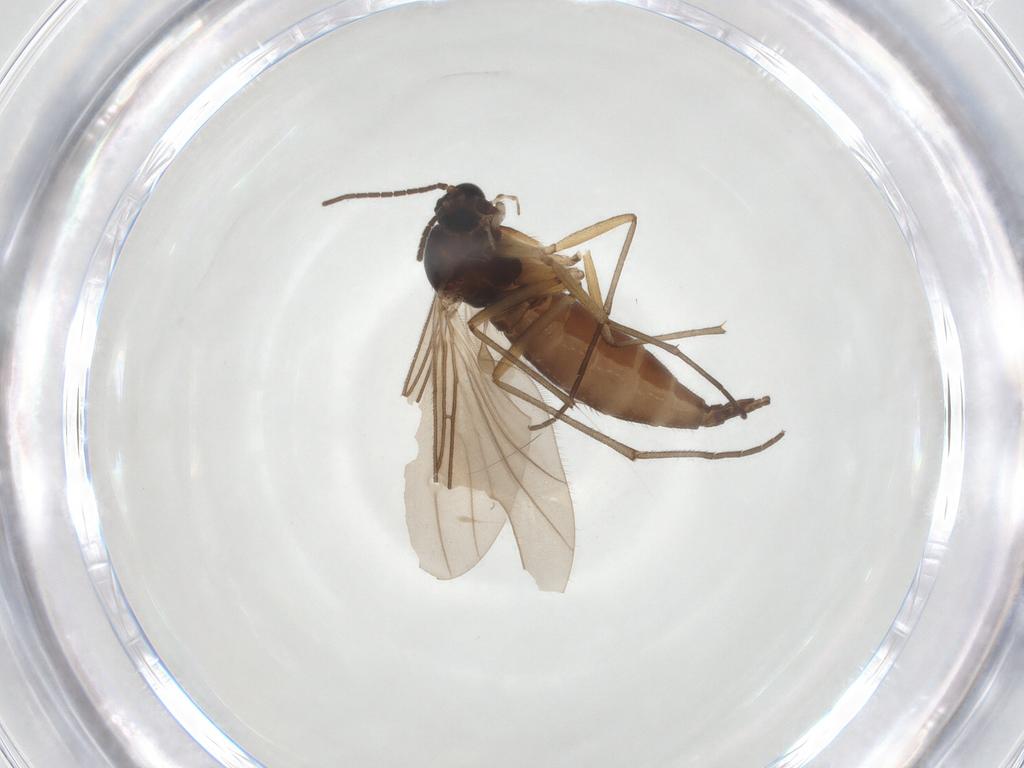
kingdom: Animalia
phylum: Arthropoda
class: Insecta
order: Diptera
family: Sciaridae
